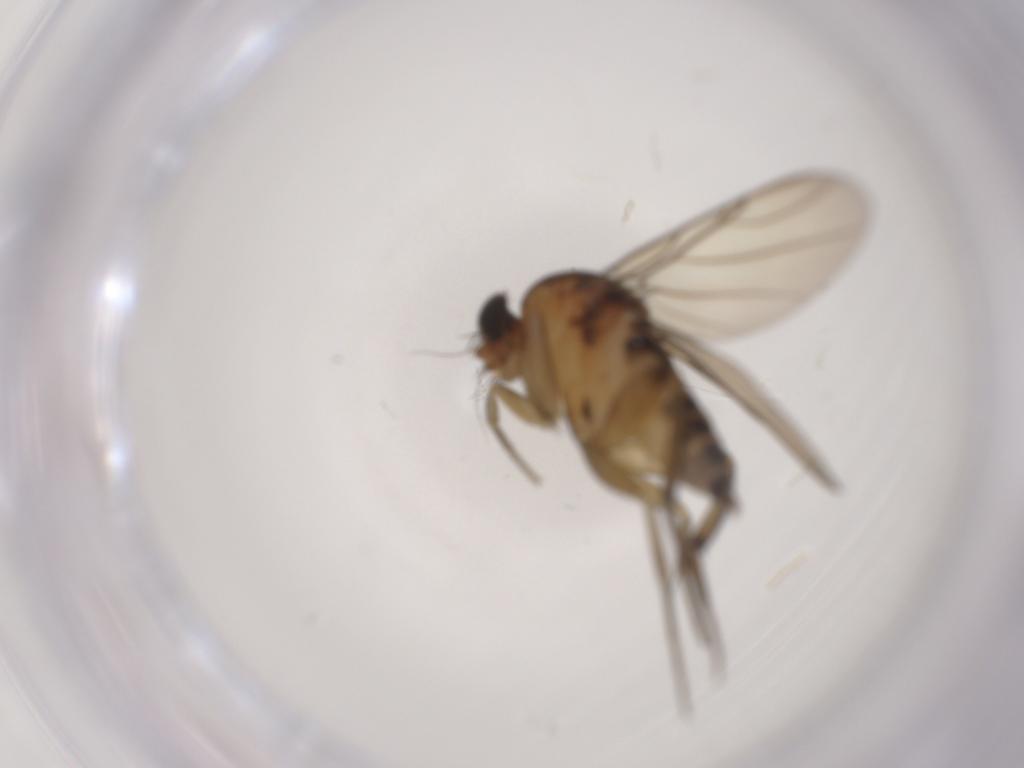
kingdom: Animalia
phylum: Arthropoda
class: Insecta
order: Diptera
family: Phoridae
